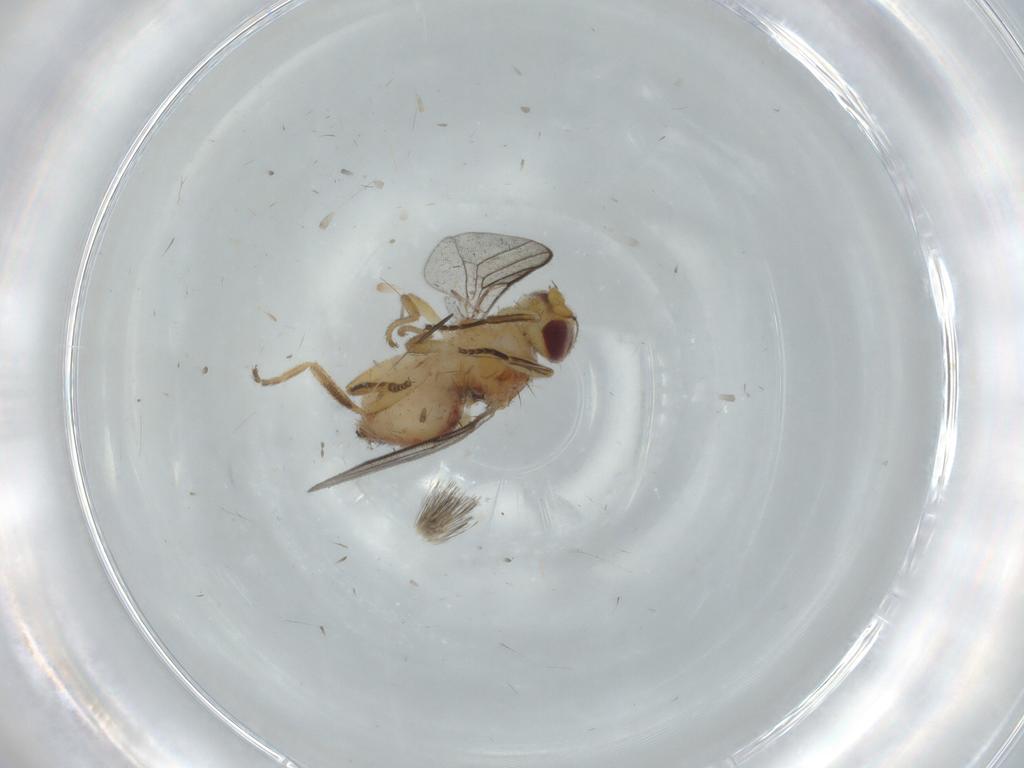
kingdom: Animalia
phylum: Arthropoda
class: Insecta
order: Diptera
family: Chloropidae
